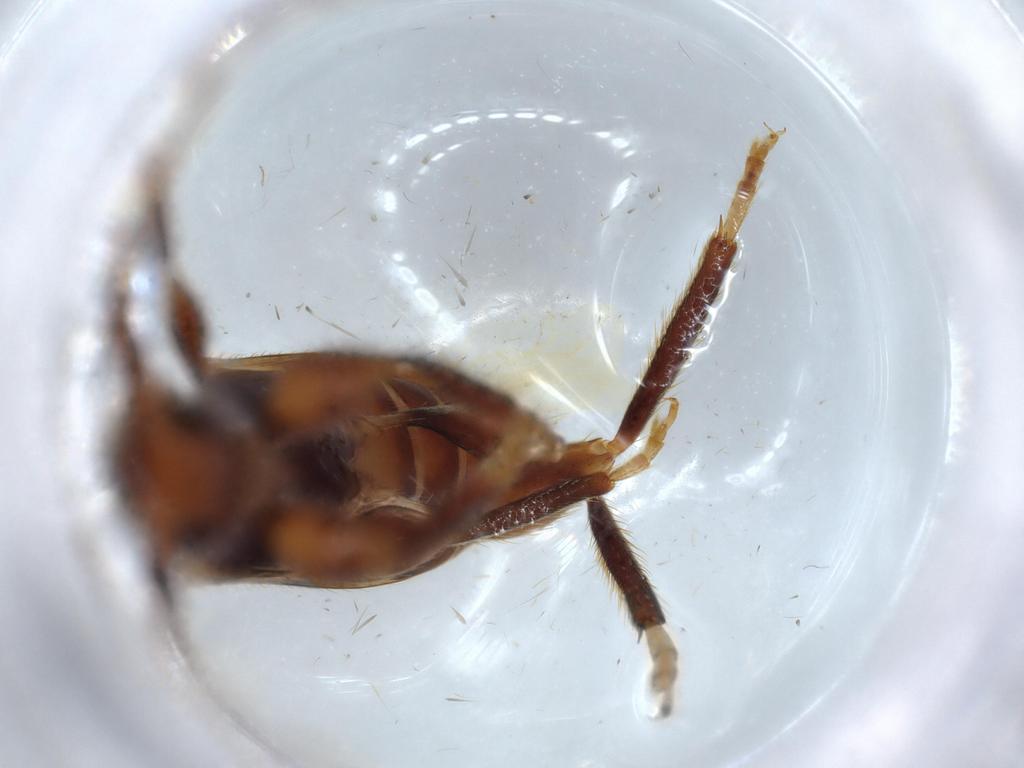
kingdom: Animalia
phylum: Arthropoda
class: Insecta
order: Coleoptera
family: Cerambycidae
